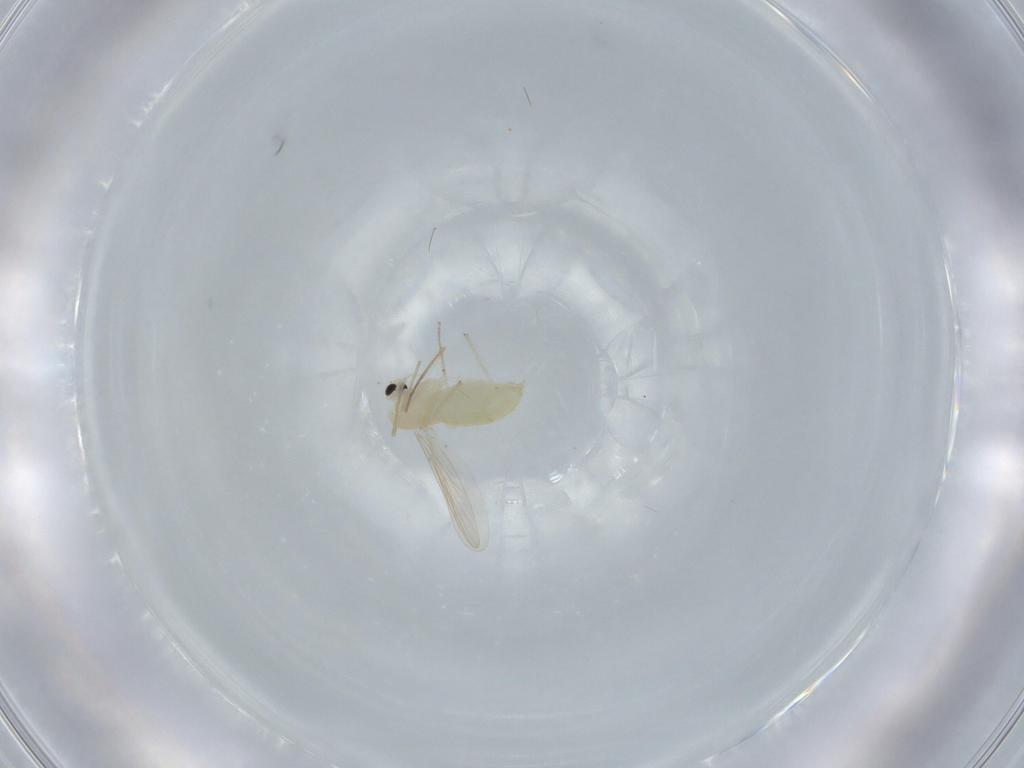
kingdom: Animalia
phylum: Arthropoda
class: Insecta
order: Diptera
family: Chironomidae
